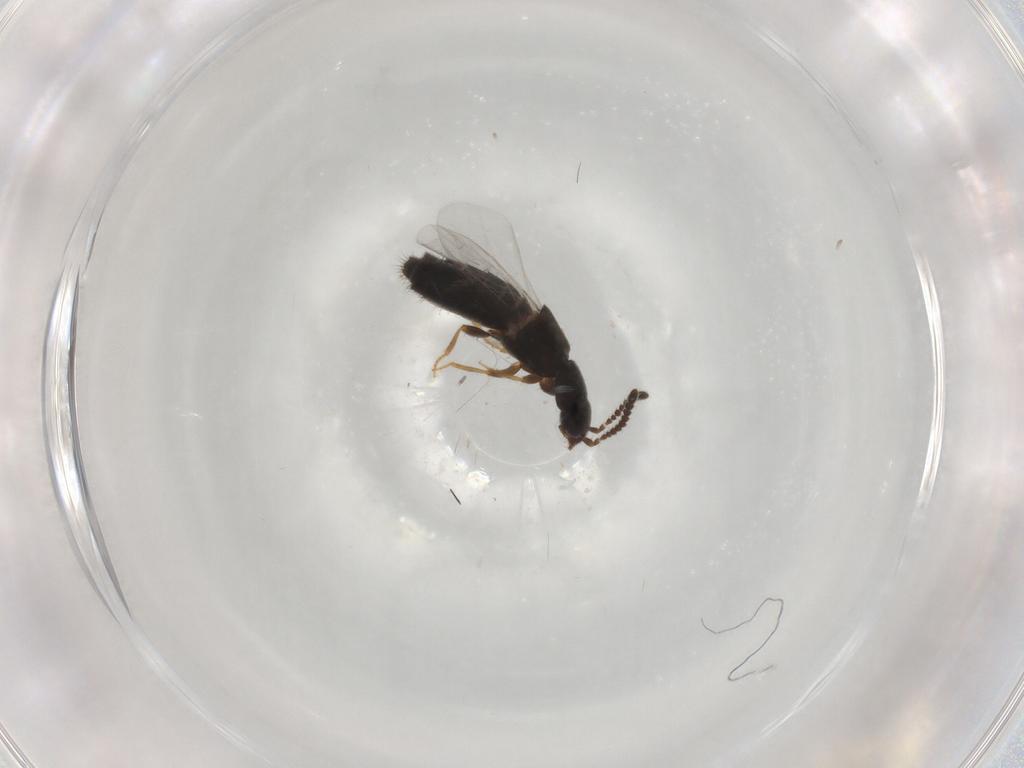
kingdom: Animalia
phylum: Arthropoda
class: Insecta
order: Coleoptera
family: Staphylinidae
